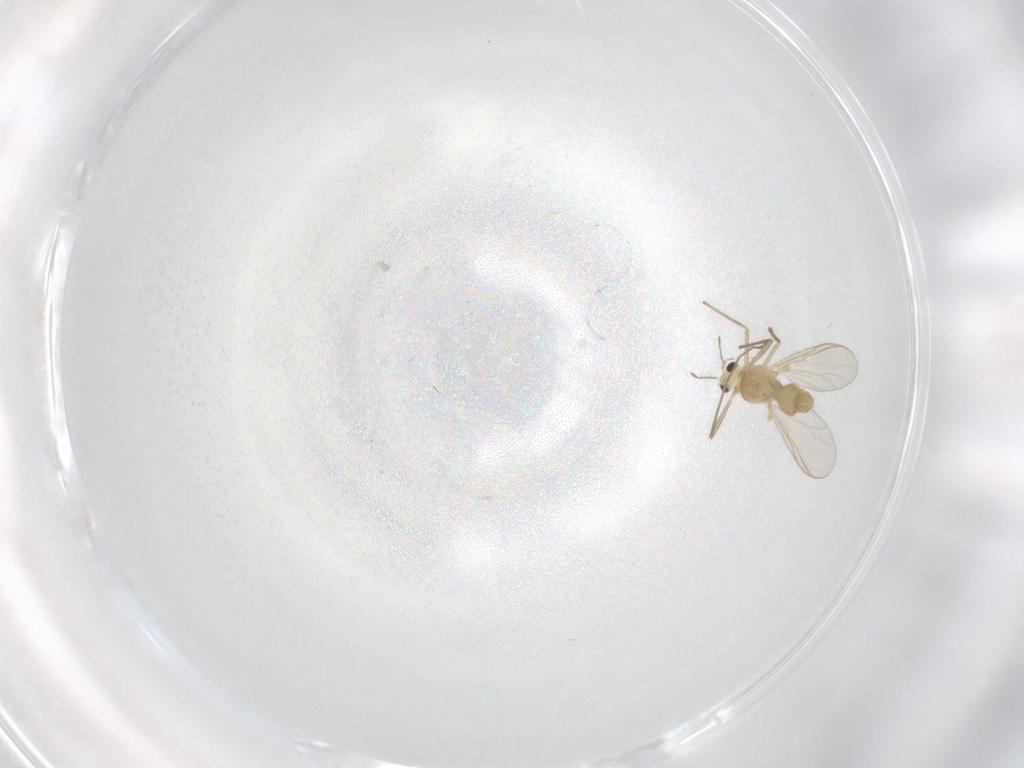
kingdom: Animalia
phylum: Arthropoda
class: Insecta
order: Diptera
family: Chironomidae
